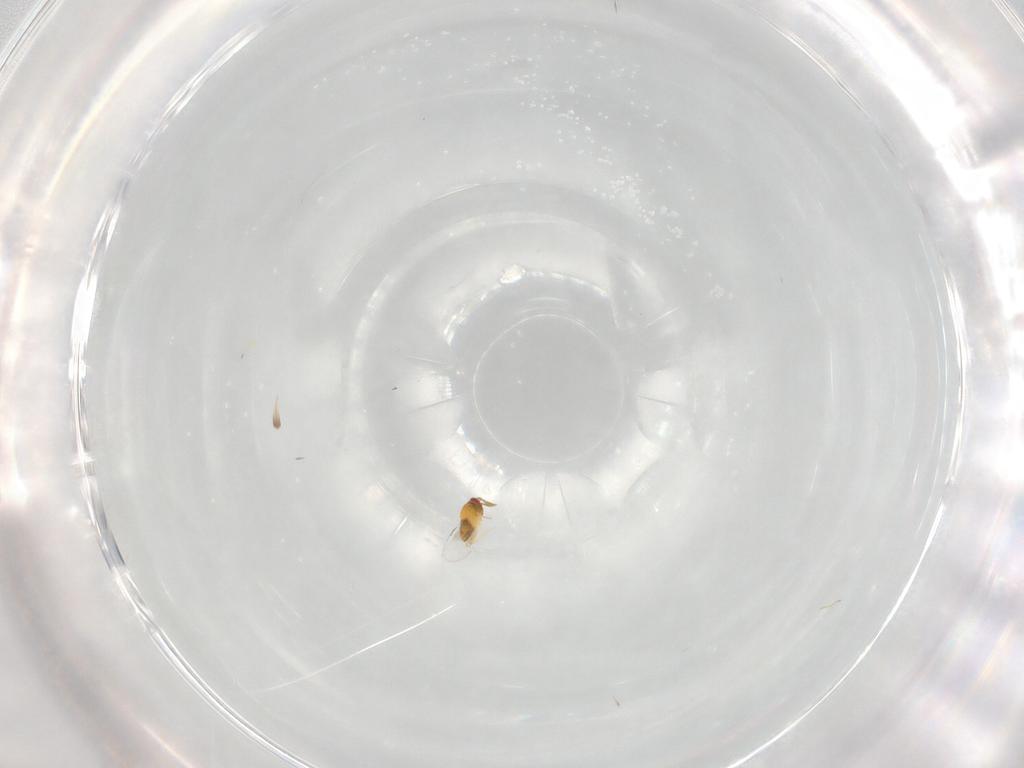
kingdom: Animalia
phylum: Arthropoda
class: Insecta
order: Hymenoptera
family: Trichogrammatidae
